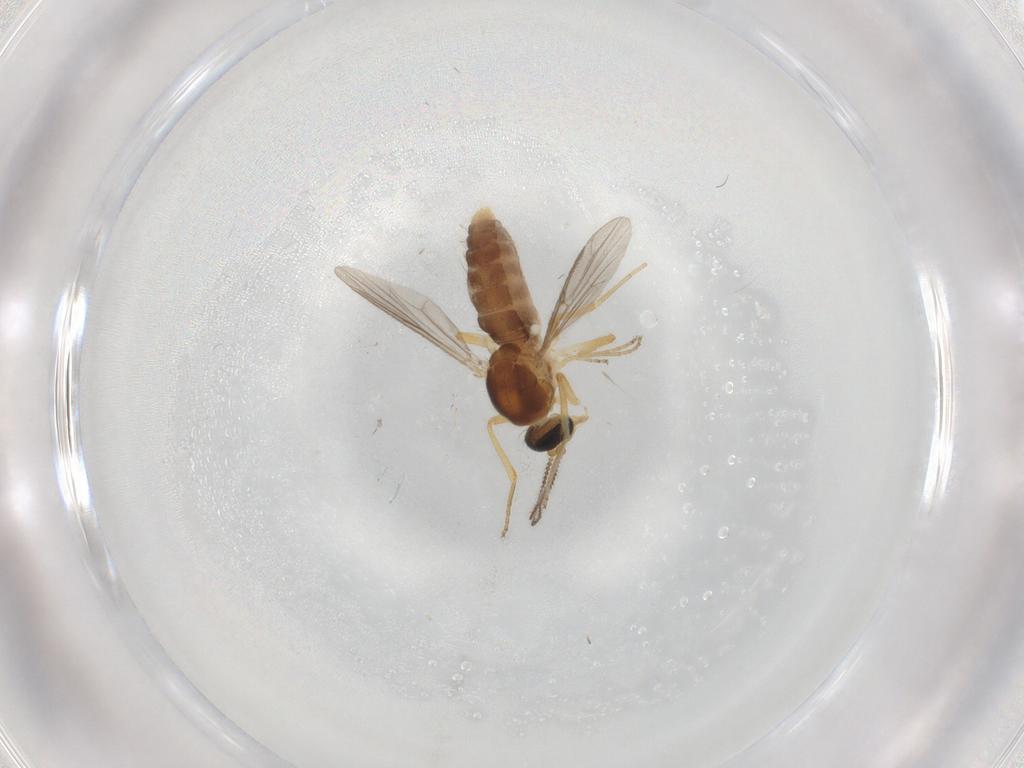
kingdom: Animalia
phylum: Arthropoda
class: Insecta
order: Diptera
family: Ceratopogonidae
